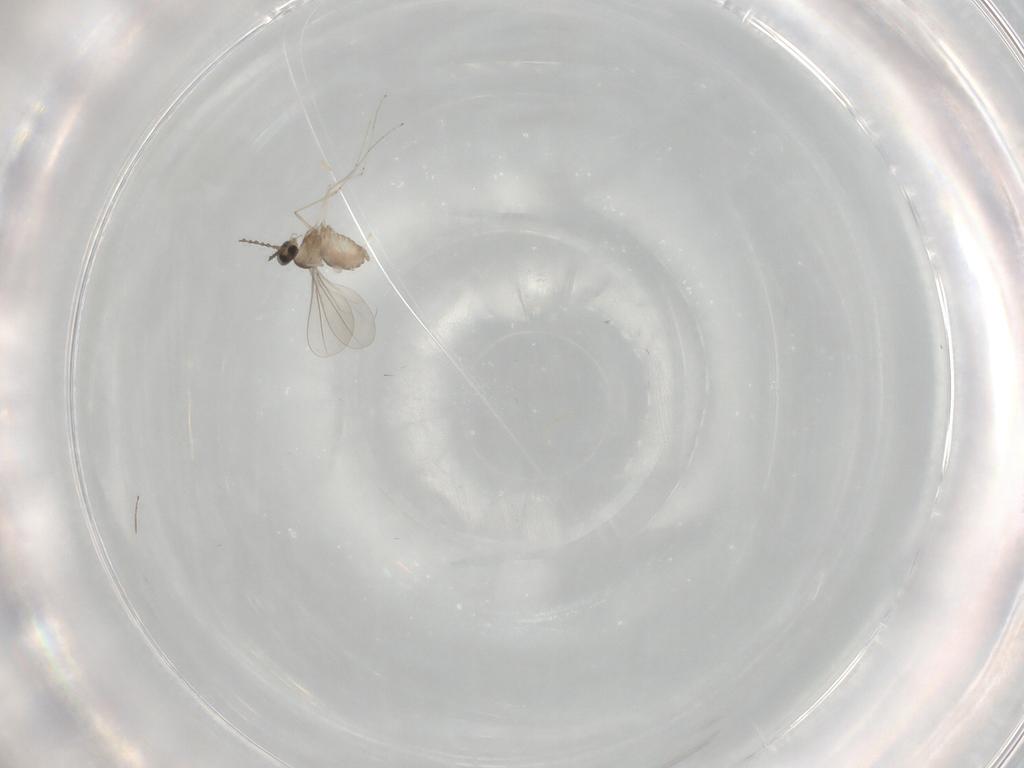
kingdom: Animalia
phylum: Arthropoda
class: Insecta
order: Diptera
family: Cecidomyiidae
